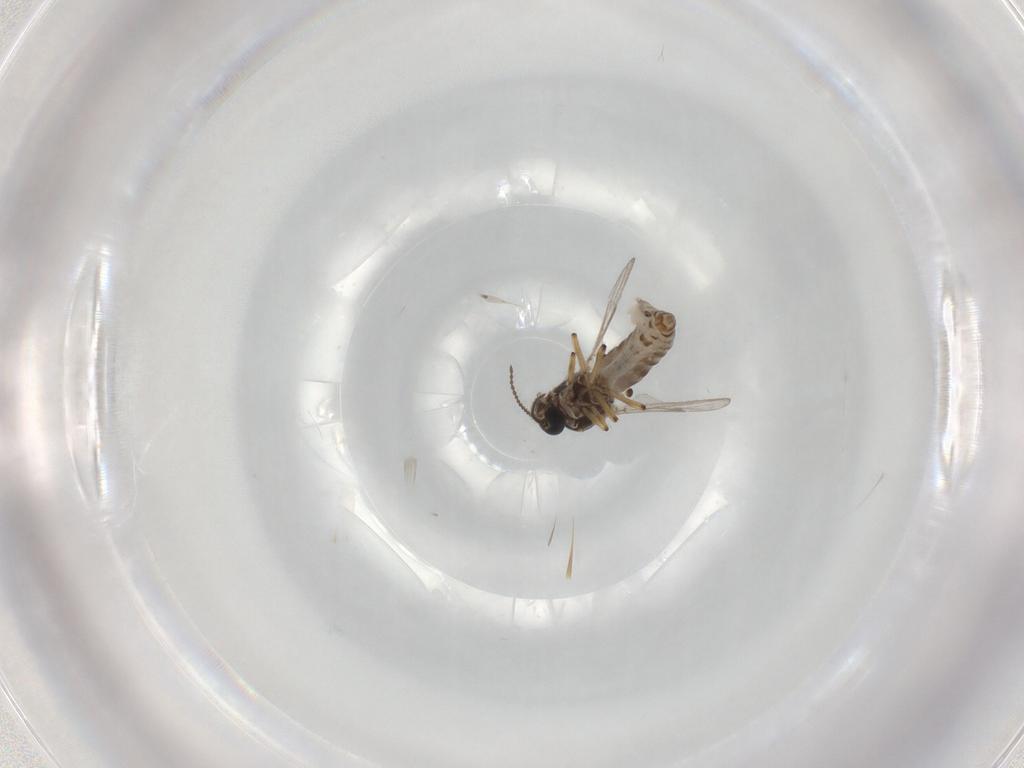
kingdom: Animalia
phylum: Arthropoda
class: Insecta
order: Diptera
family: Ceratopogonidae
